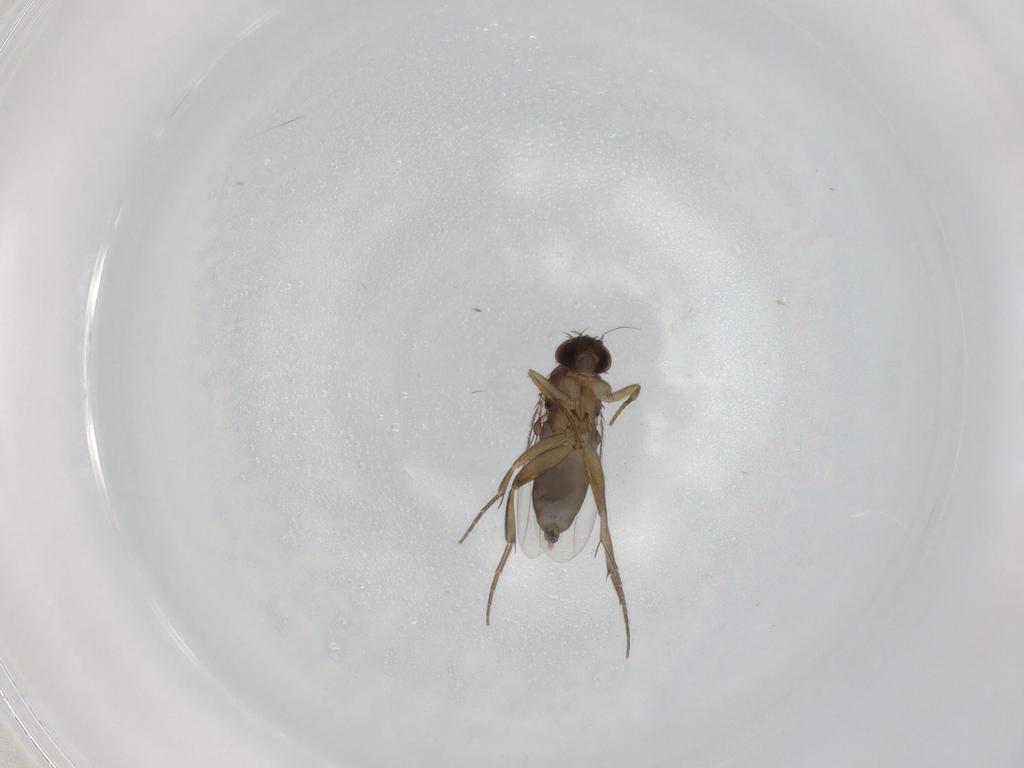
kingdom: Animalia
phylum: Arthropoda
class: Insecta
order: Diptera
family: Phoridae
